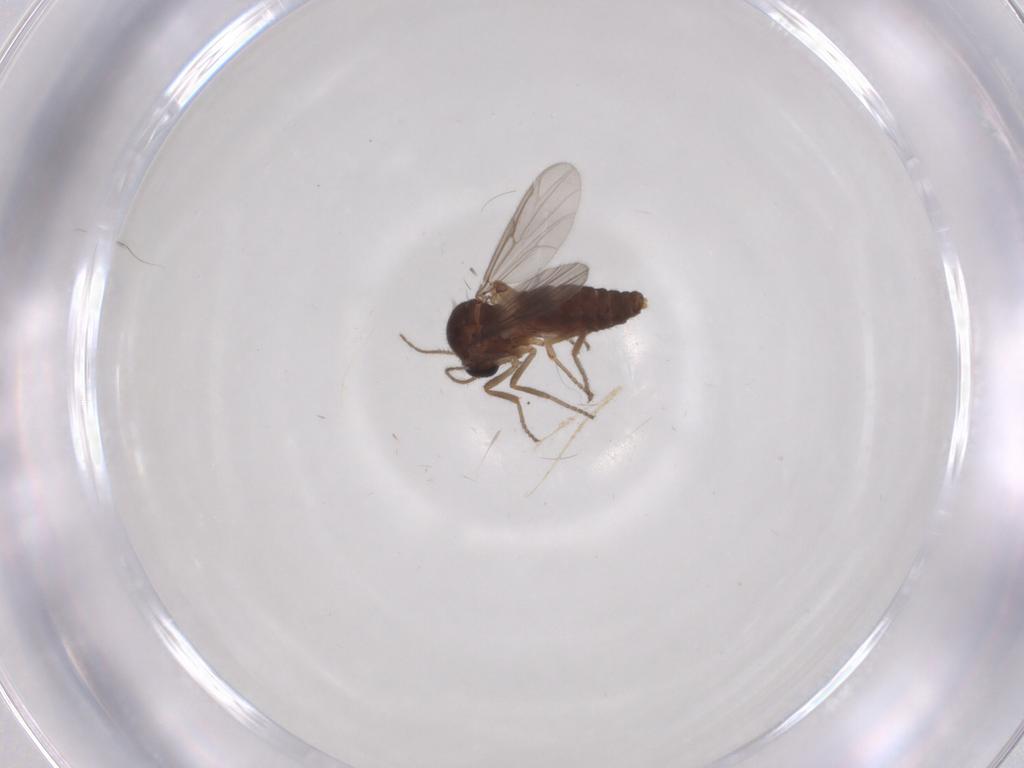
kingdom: Animalia
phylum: Arthropoda
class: Insecta
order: Diptera
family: Ceratopogonidae
